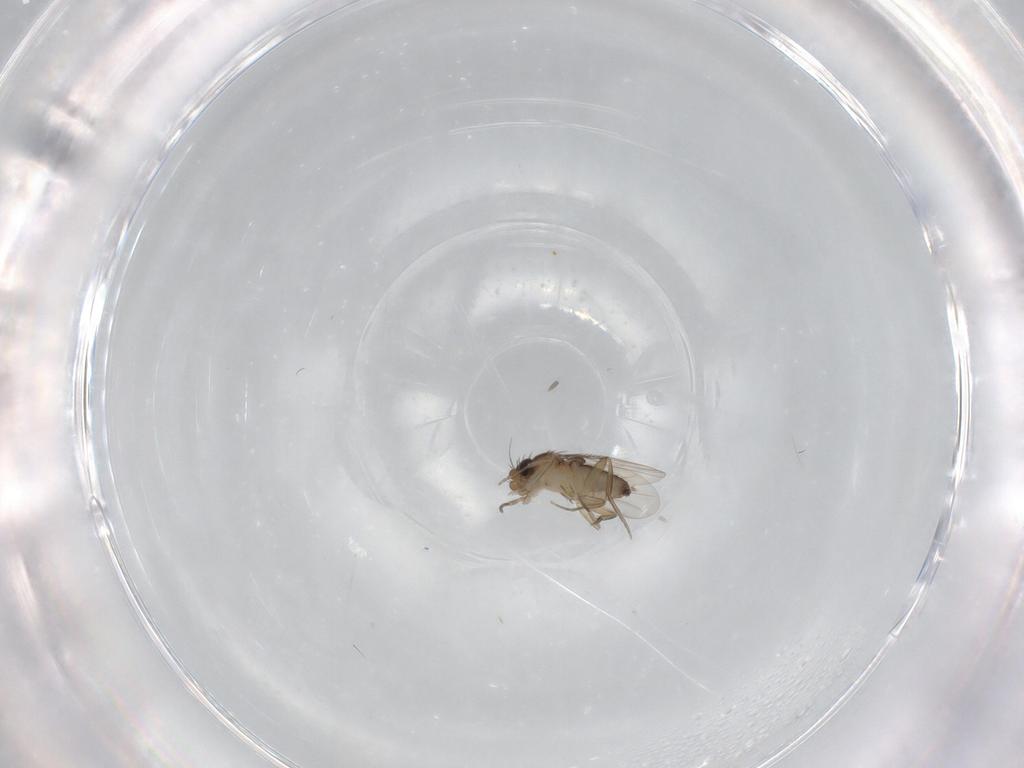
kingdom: Animalia
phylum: Arthropoda
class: Insecta
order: Diptera
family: Phoridae
